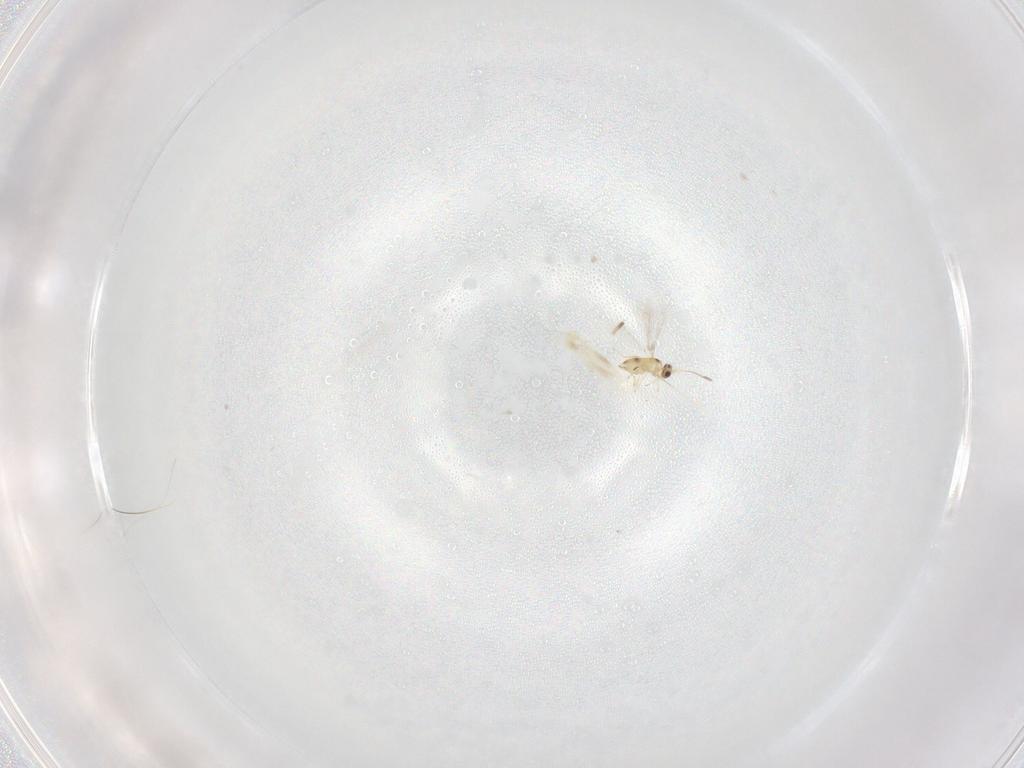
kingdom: Animalia
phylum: Arthropoda
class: Insecta
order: Hymenoptera
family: Mymaridae
